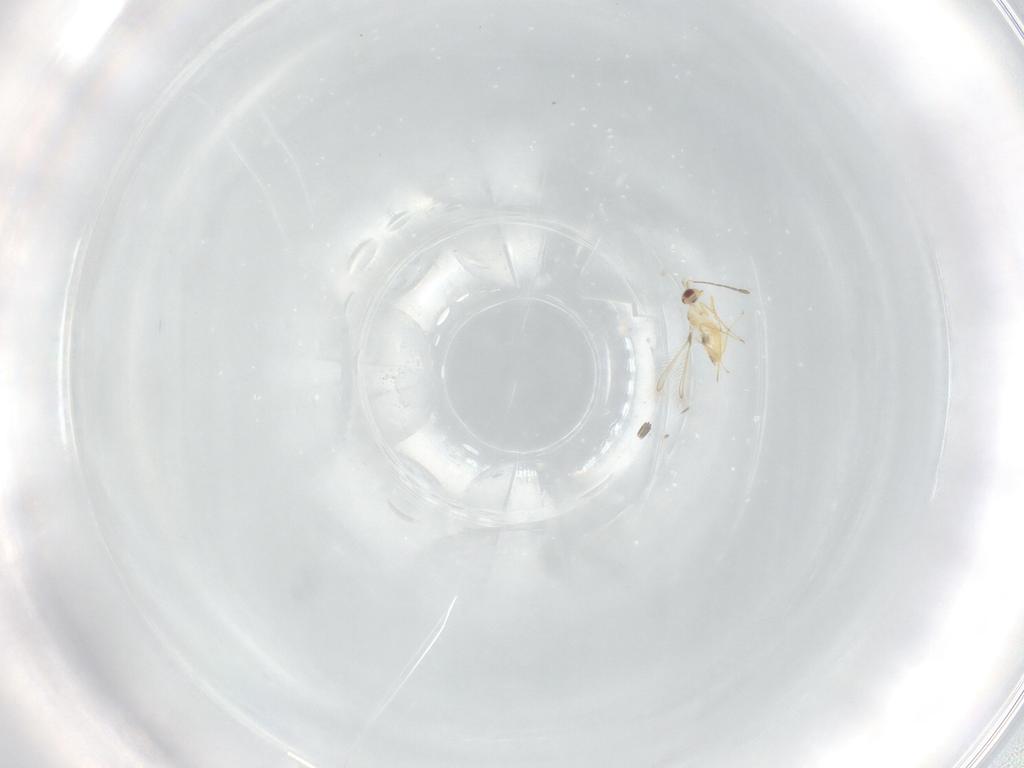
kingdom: Animalia
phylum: Arthropoda
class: Insecta
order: Hymenoptera
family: Mymaridae
